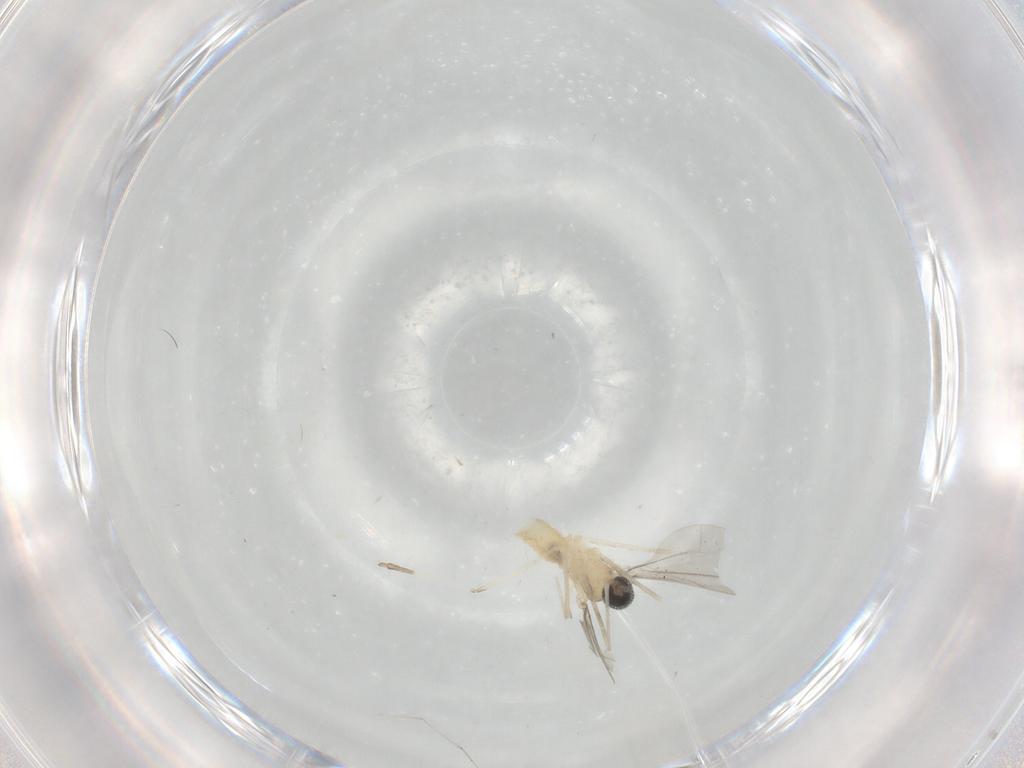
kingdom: Animalia
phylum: Arthropoda
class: Insecta
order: Diptera
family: Cecidomyiidae
